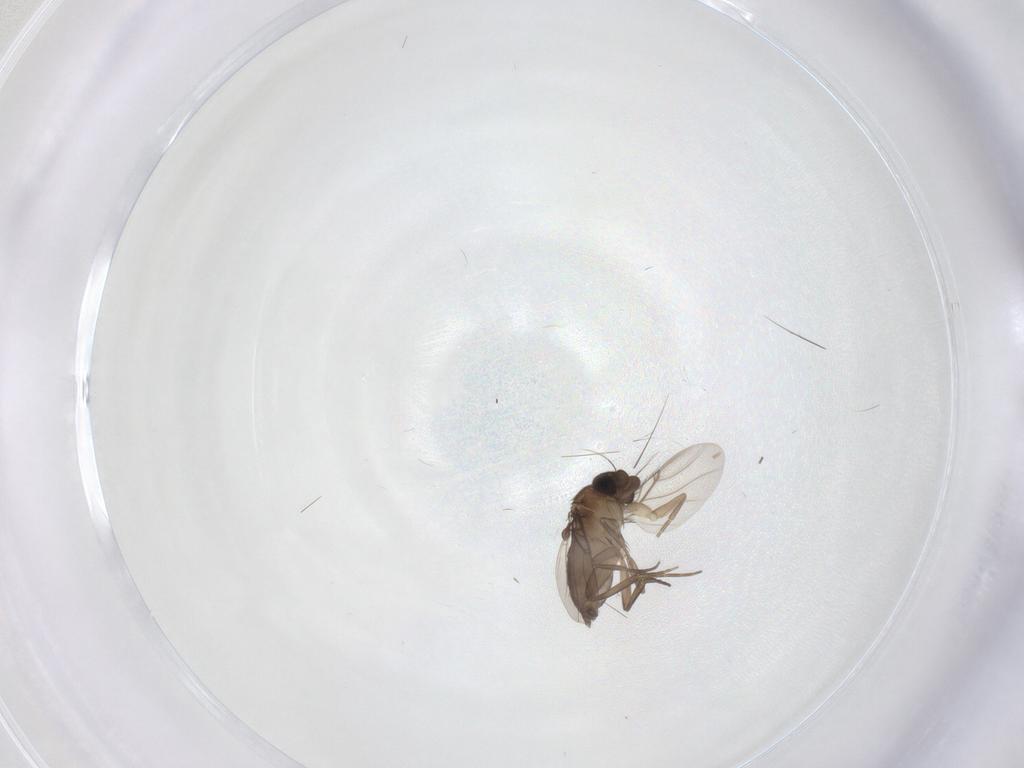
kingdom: Animalia
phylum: Arthropoda
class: Insecta
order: Diptera
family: Phoridae
